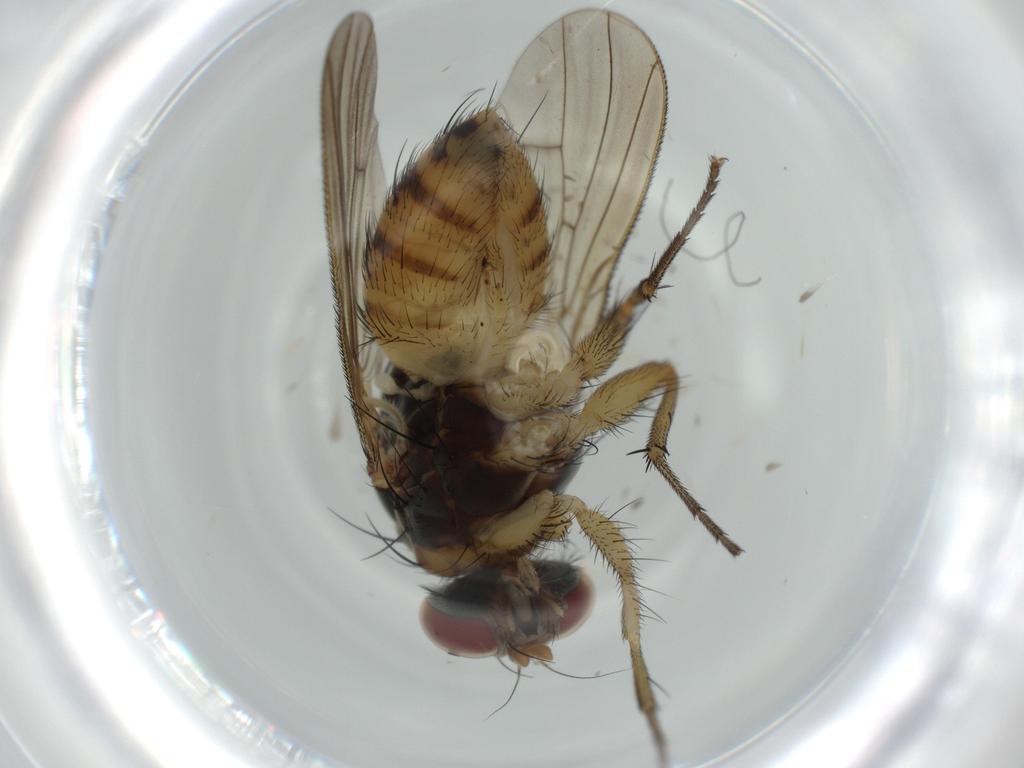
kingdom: Animalia
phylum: Arthropoda
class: Insecta
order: Diptera
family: Muscidae
